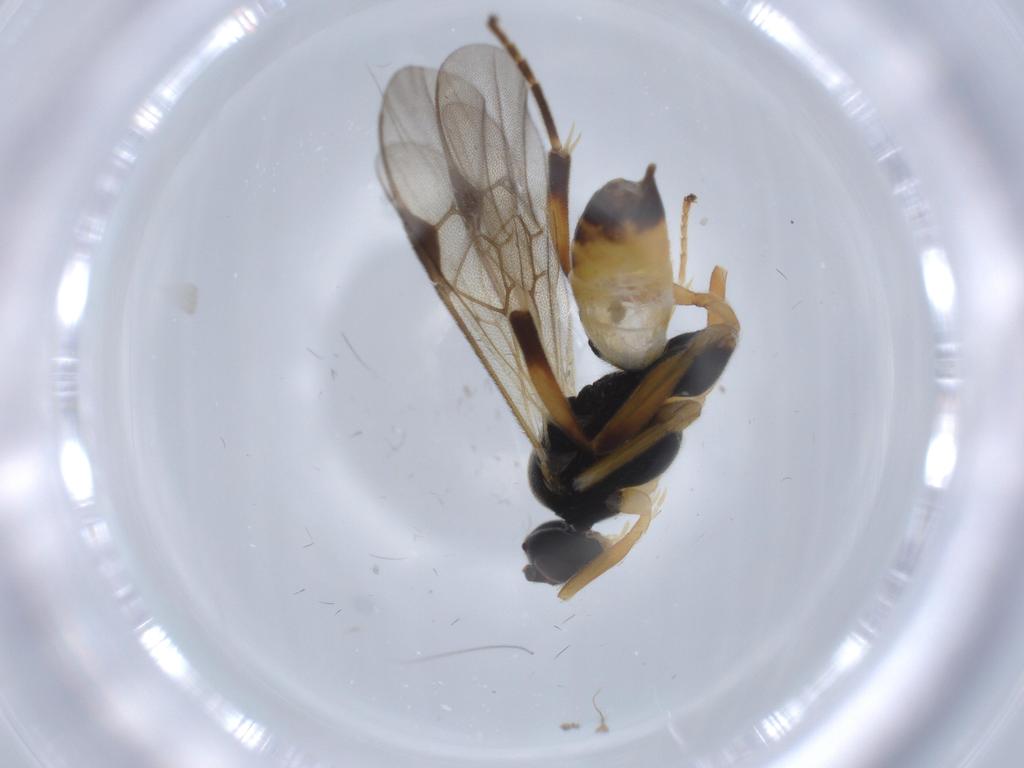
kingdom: Animalia
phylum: Arthropoda
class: Insecta
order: Hymenoptera
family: Braconidae
